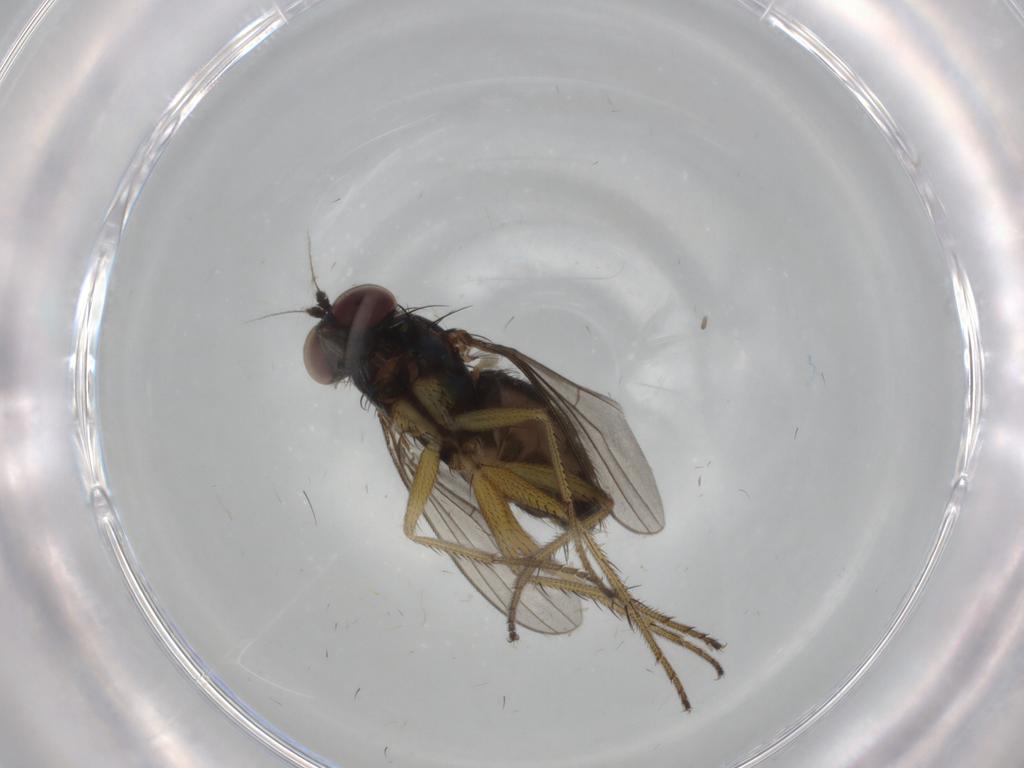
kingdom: Animalia
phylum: Arthropoda
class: Insecta
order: Diptera
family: Dolichopodidae
